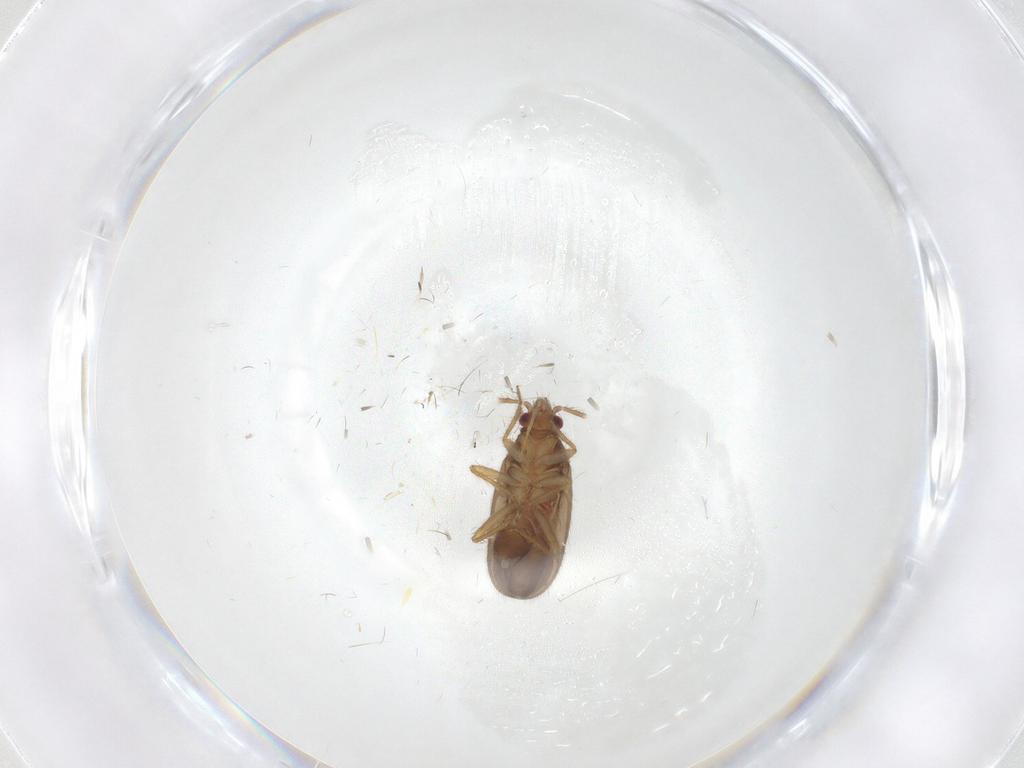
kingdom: Animalia
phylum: Arthropoda
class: Insecta
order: Hemiptera
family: Ceratocombidae
